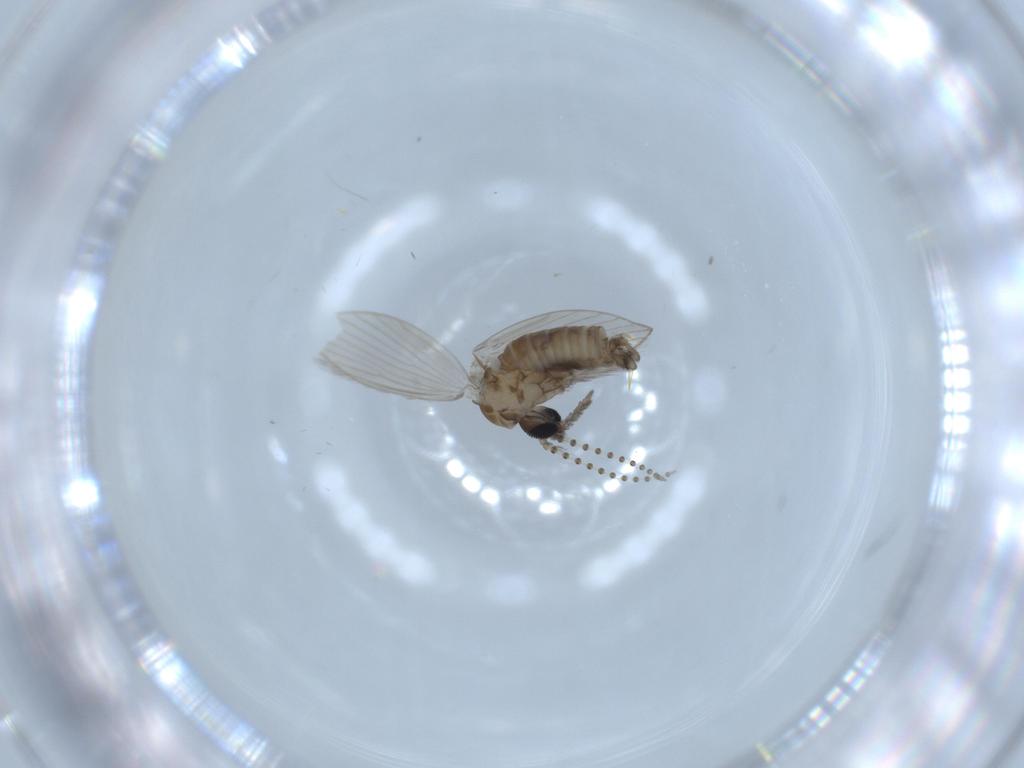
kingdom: Animalia
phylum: Arthropoda
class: Insecta
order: Diptera
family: Psychodidae
